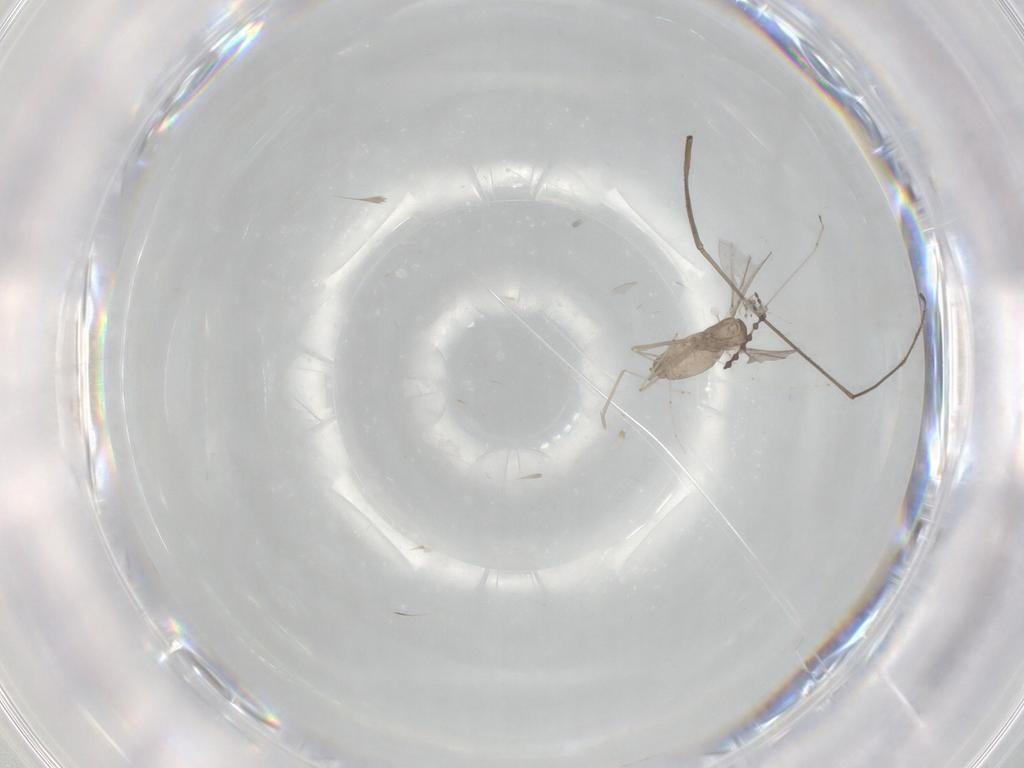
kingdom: Animalia
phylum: Arthropoda
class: Insecta
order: Diptera
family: Cecidomyiidae
